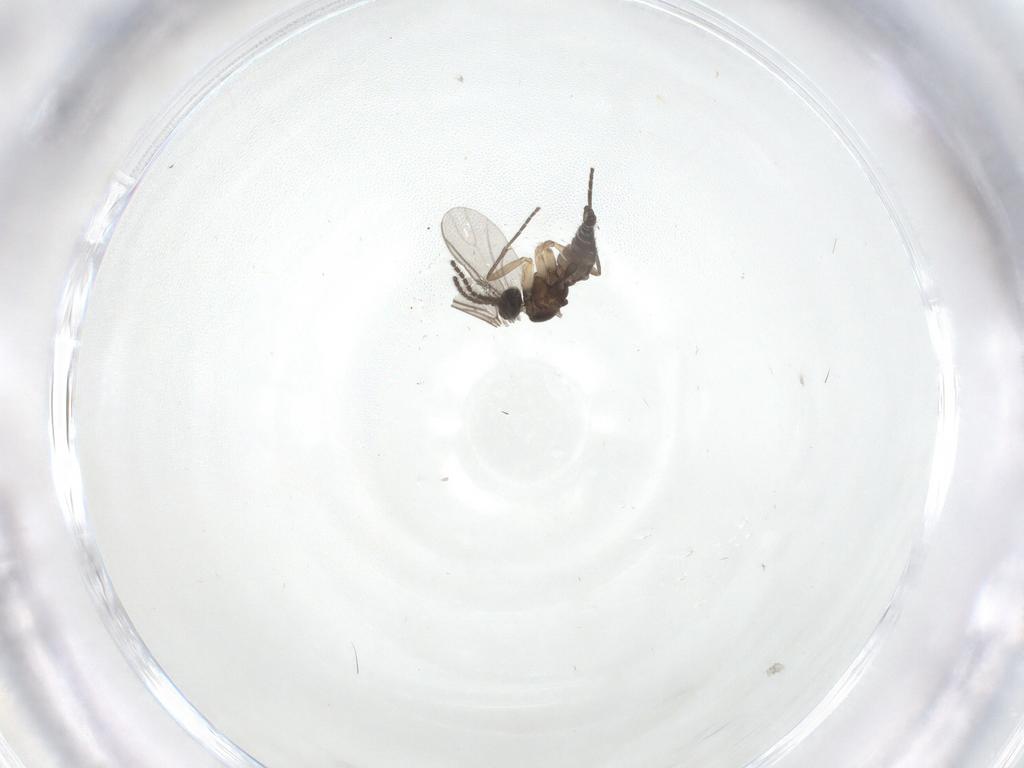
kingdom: Animalia
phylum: Arthropoda
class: Insecta
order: Diptera
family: Sciaridae
